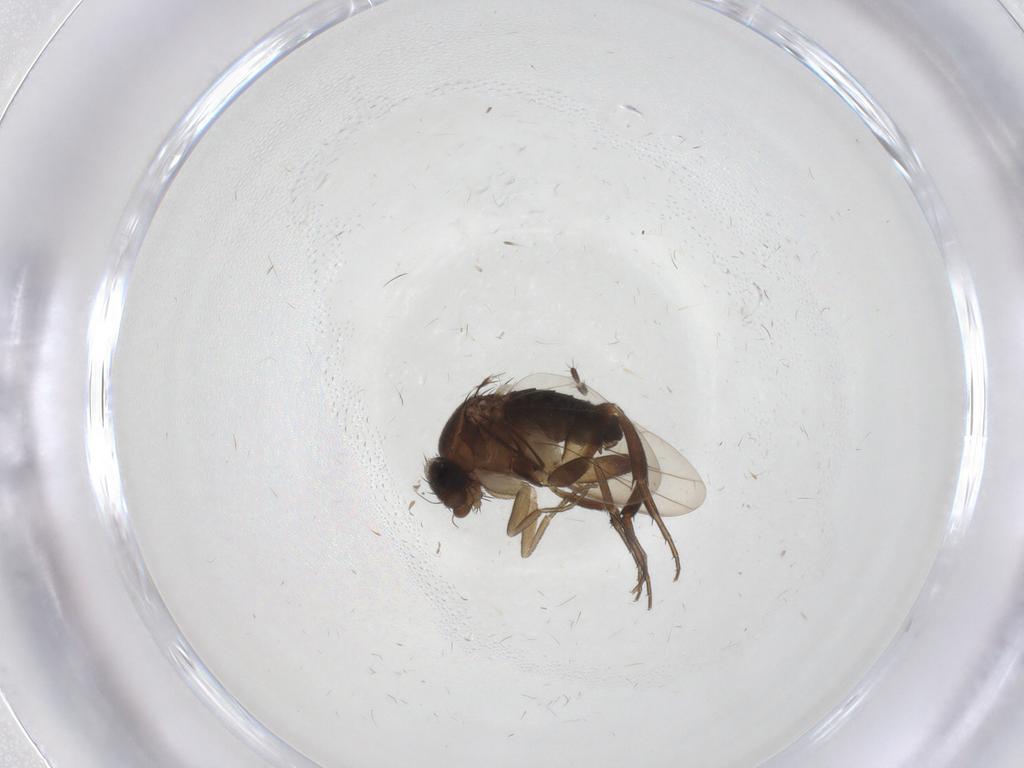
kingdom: Animalia
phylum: Arthropoda
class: Insecta
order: Diptera
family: Phoridae
